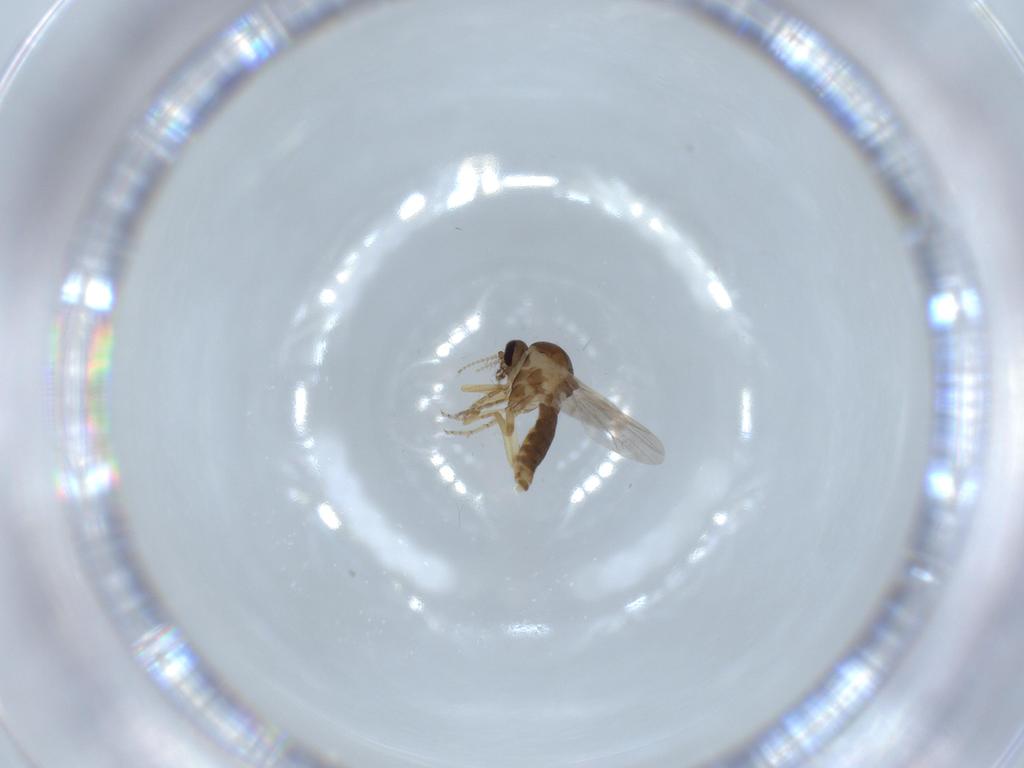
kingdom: Animalia
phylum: Arthropoda
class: Insecta
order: Diptera
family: Ceratopogonidae
